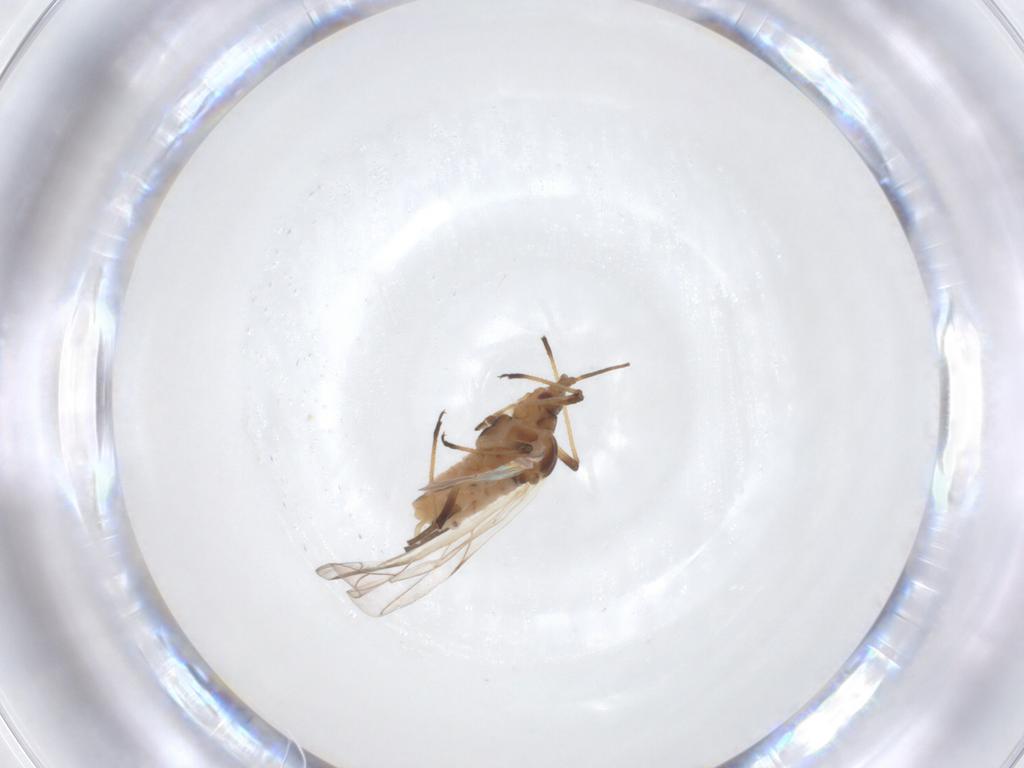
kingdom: Animalia
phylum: Arthropoda
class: Insecta
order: Hemiptera
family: Aphididae
